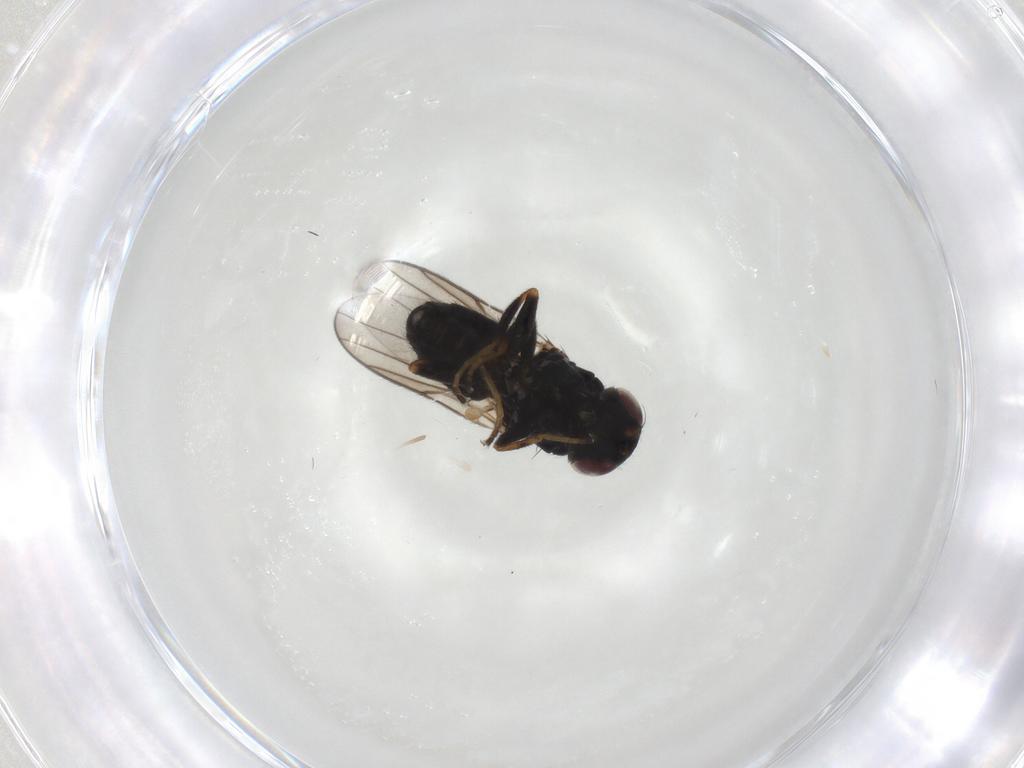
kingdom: Animalia
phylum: Arthropoda
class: Insecta
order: Diptera
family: Chloropidae
